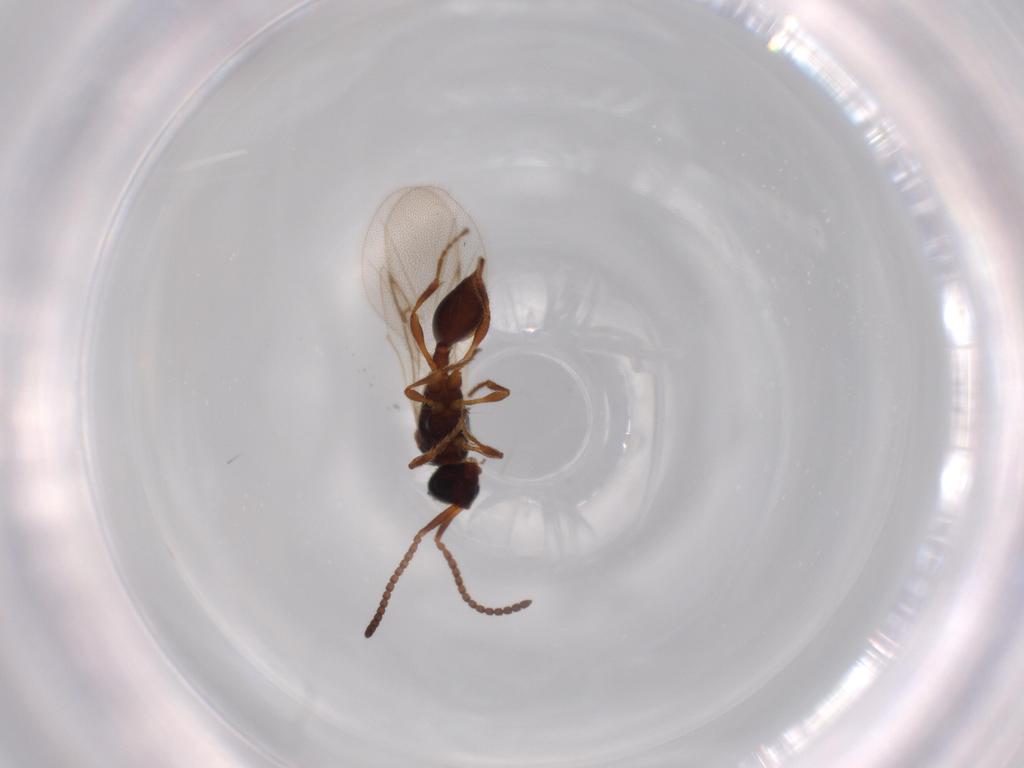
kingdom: Animalia
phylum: Arthropoda
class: Insecta
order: Hymenoptera
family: Diapriidae
